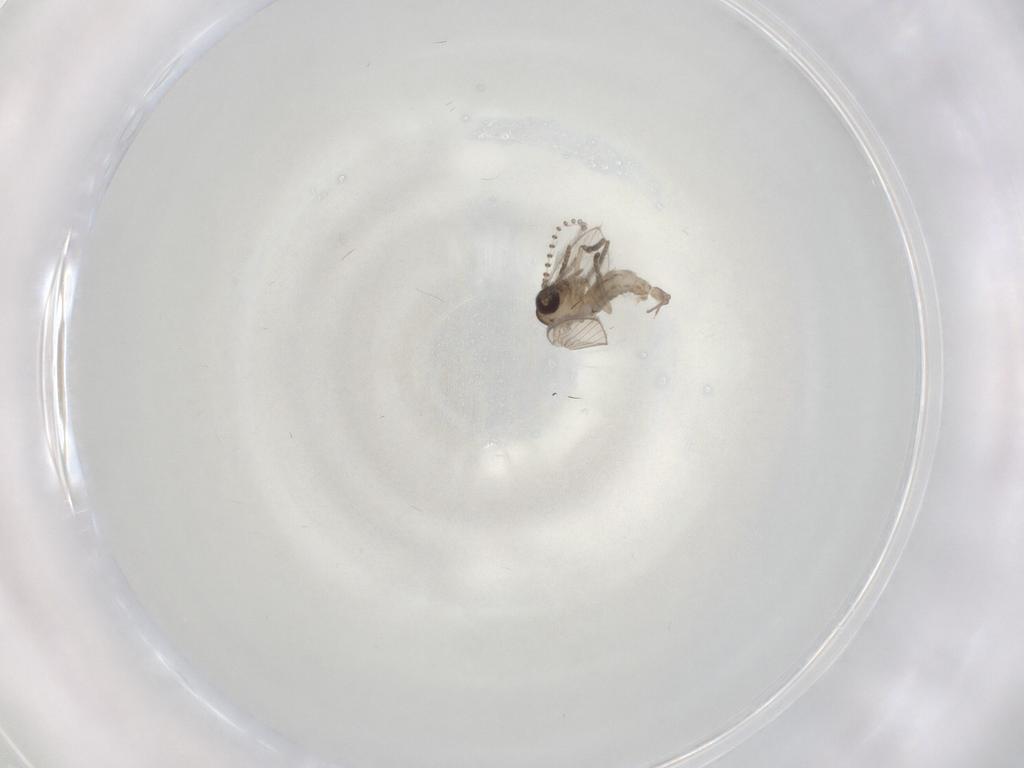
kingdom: Animalia
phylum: Arthropoda
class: Insecta
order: Diptera
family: Psychodidae
